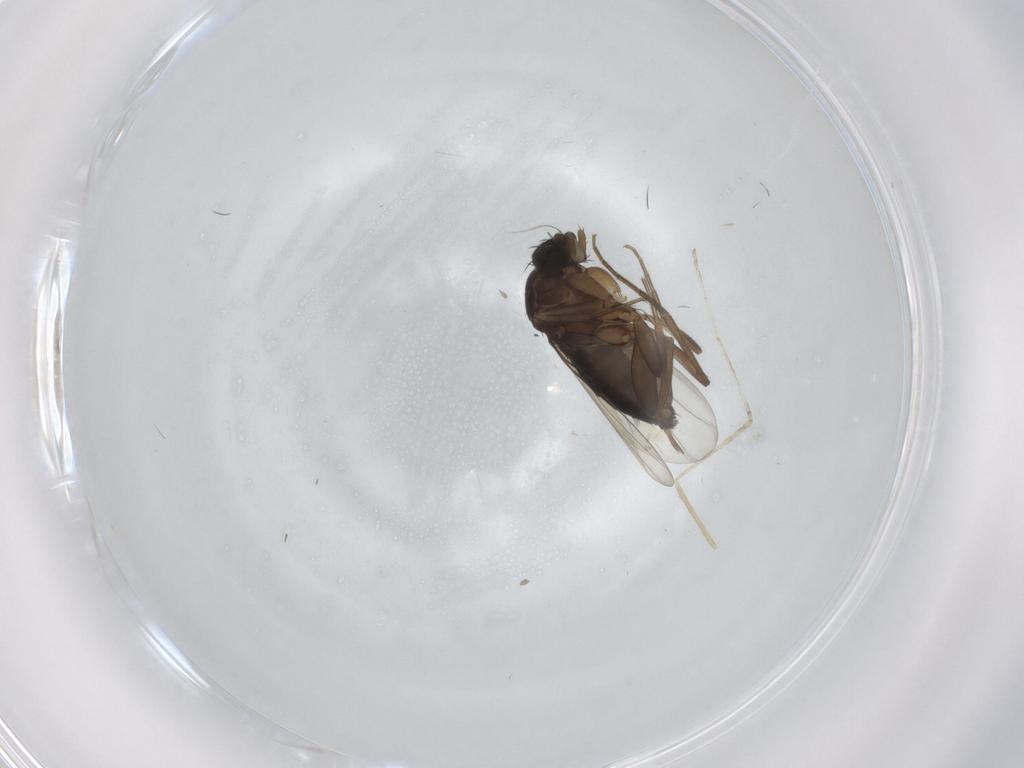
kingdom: Animalia
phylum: Arthropoda
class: Insecta
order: Diptera
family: Phoridae
